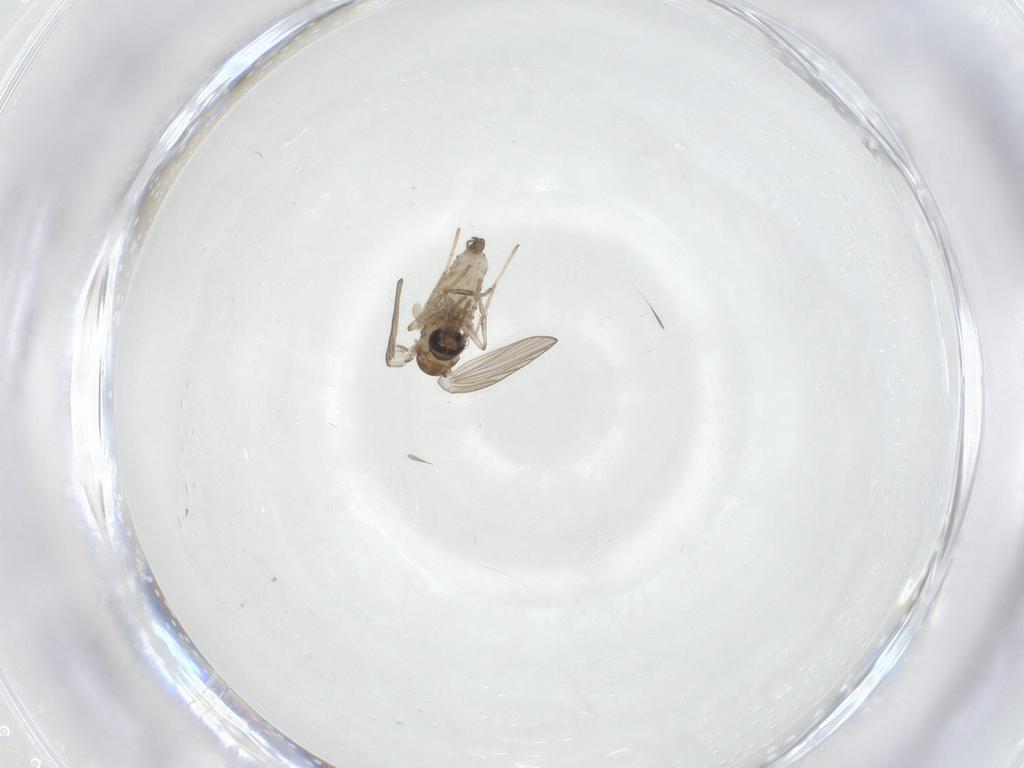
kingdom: Animalia
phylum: Arthropoda
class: Insecta
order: Diptera
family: Psychodidae
